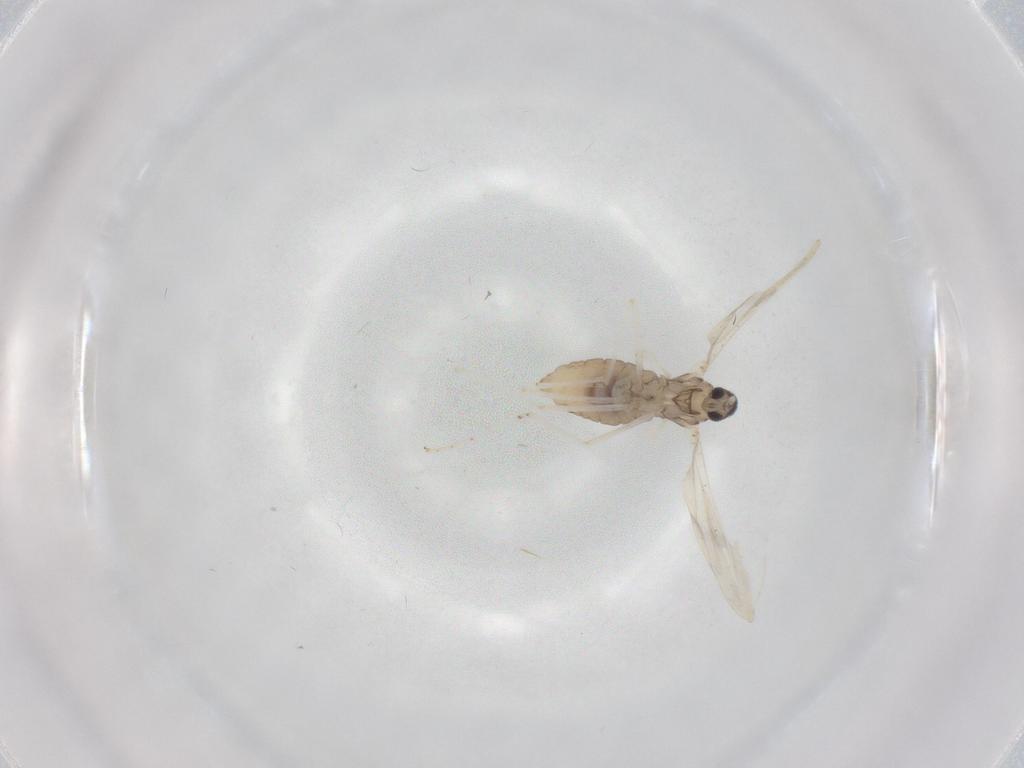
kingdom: Animalia
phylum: Arthropoda
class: Insecta
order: Diptera
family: Cecidomyiidae
